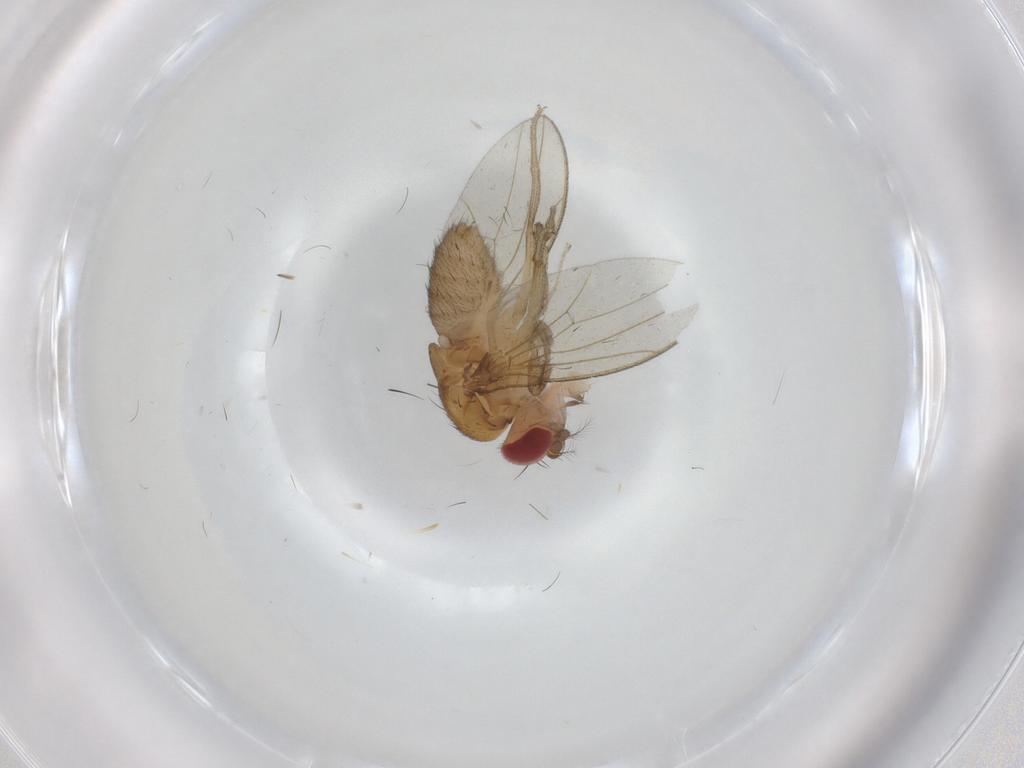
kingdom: Animalia
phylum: Arthropoda
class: Insecta
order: Diptera
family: Drosophilidae
